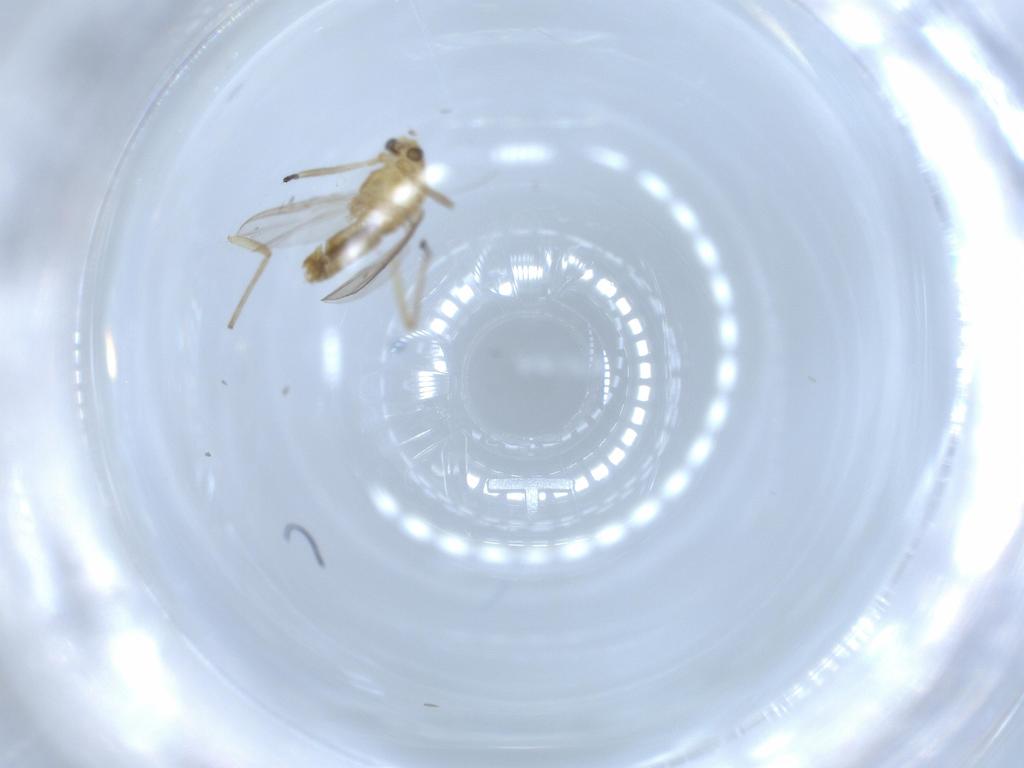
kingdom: Animalia
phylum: Arthropoda
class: Insecta
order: Diptera
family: Chironomidae
